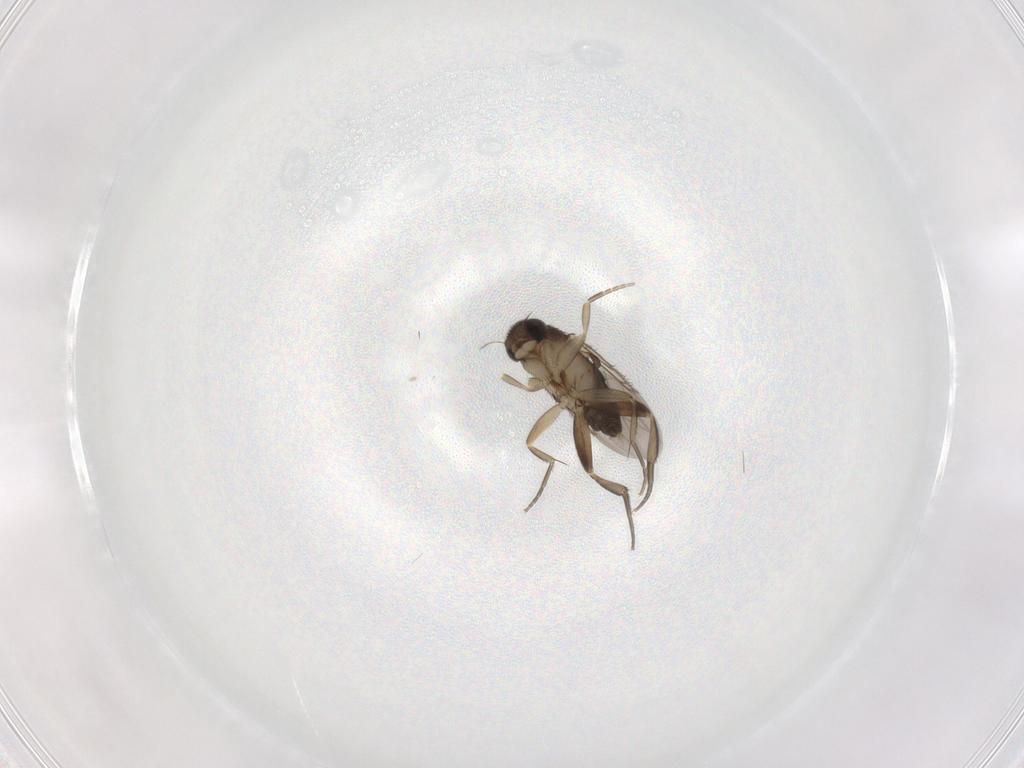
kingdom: Animalia
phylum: Arthropoda
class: Insecta
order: Diptera
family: Phoridae
